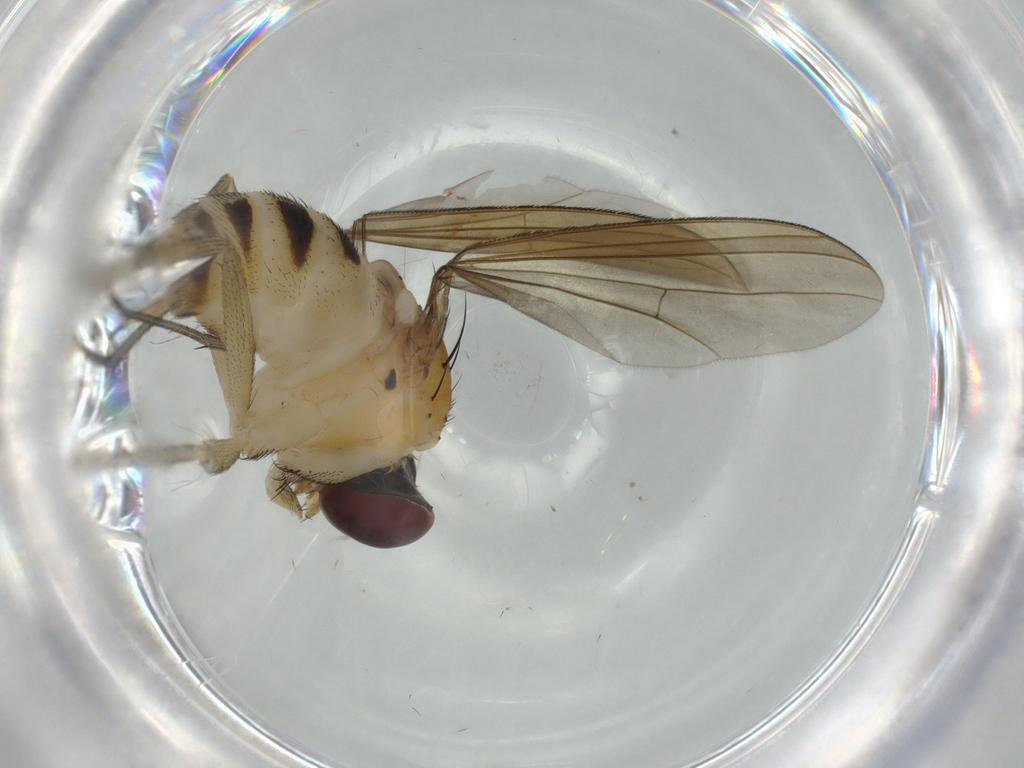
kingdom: Animalia
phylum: Arthropoda
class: Insecta
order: Diptera
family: Dolichopodidae
